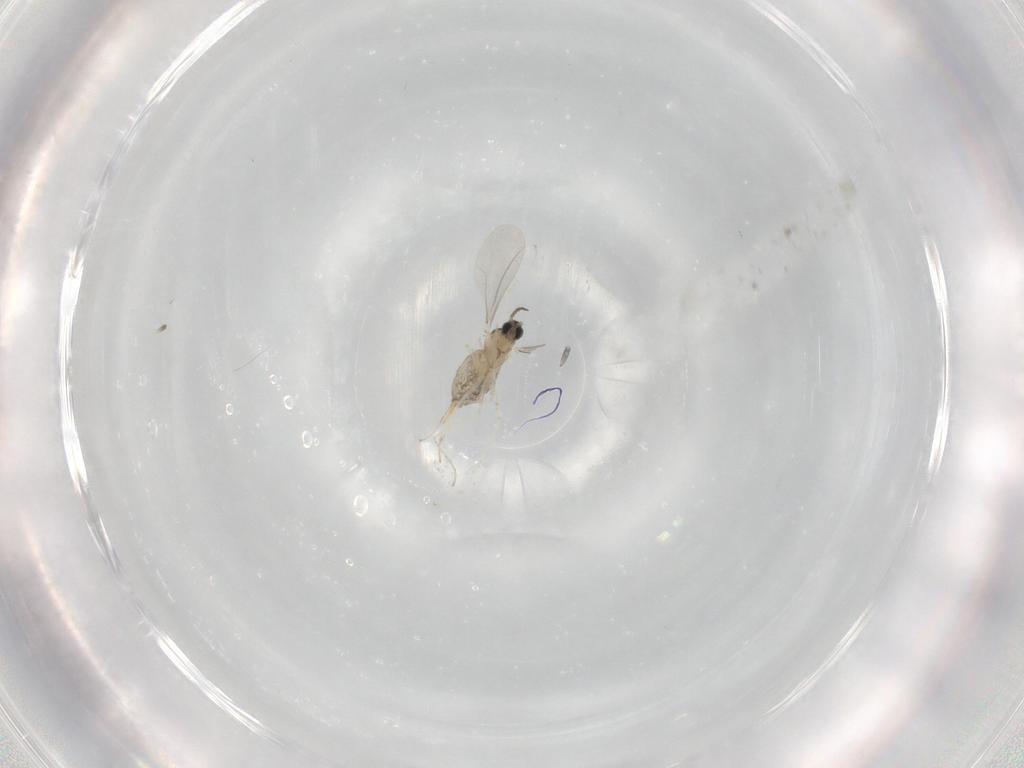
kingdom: Animalia
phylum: Arthropoda
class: Insecta
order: Diptera
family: Cecidomyiidae
